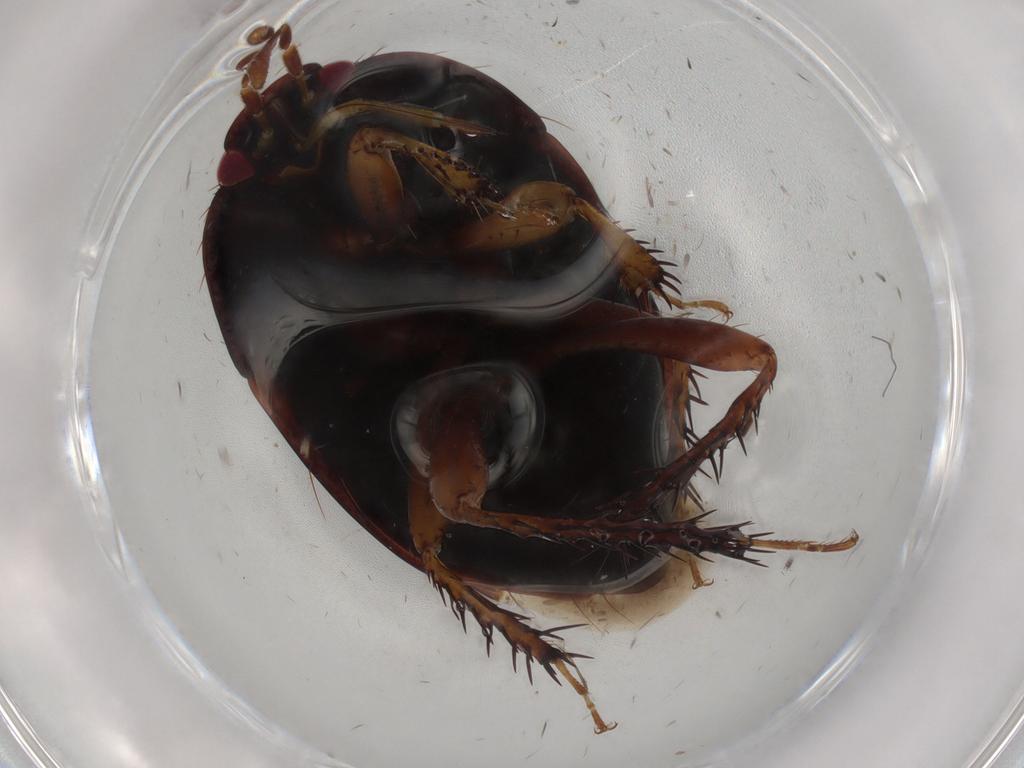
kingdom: Animalia
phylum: Arthropoda
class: Insecta
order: Hemiptera
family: Cydnidae
